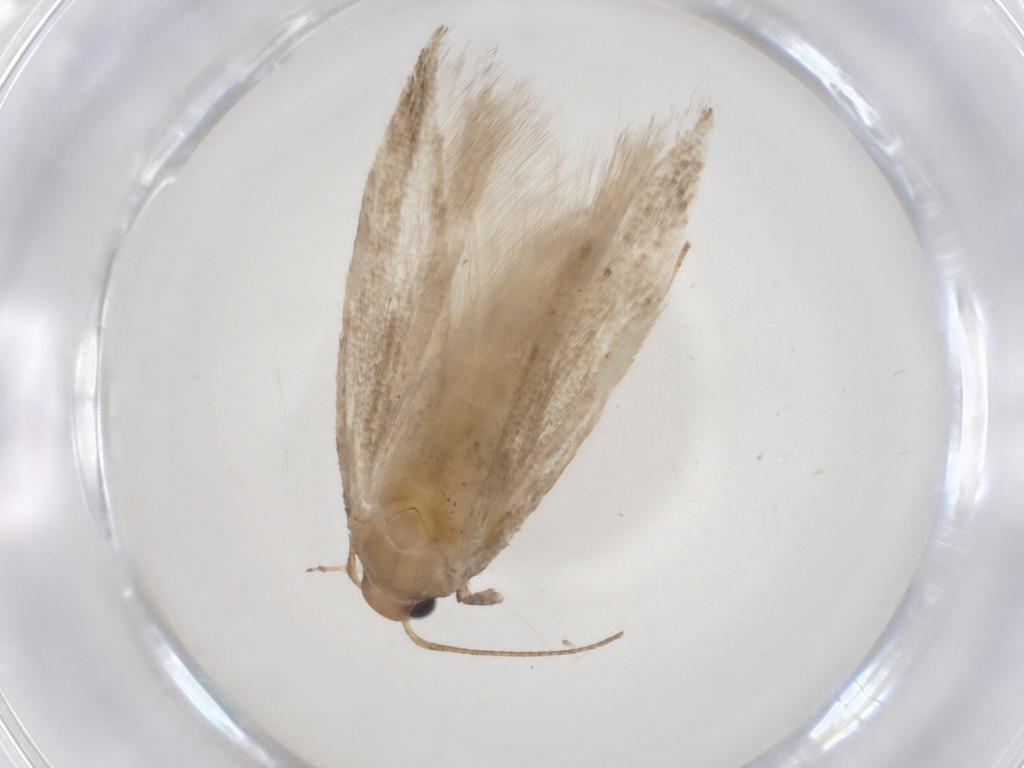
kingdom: Animalia
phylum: Arthropoda
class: Insecta
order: Lepidoptera
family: Gelechiidae
